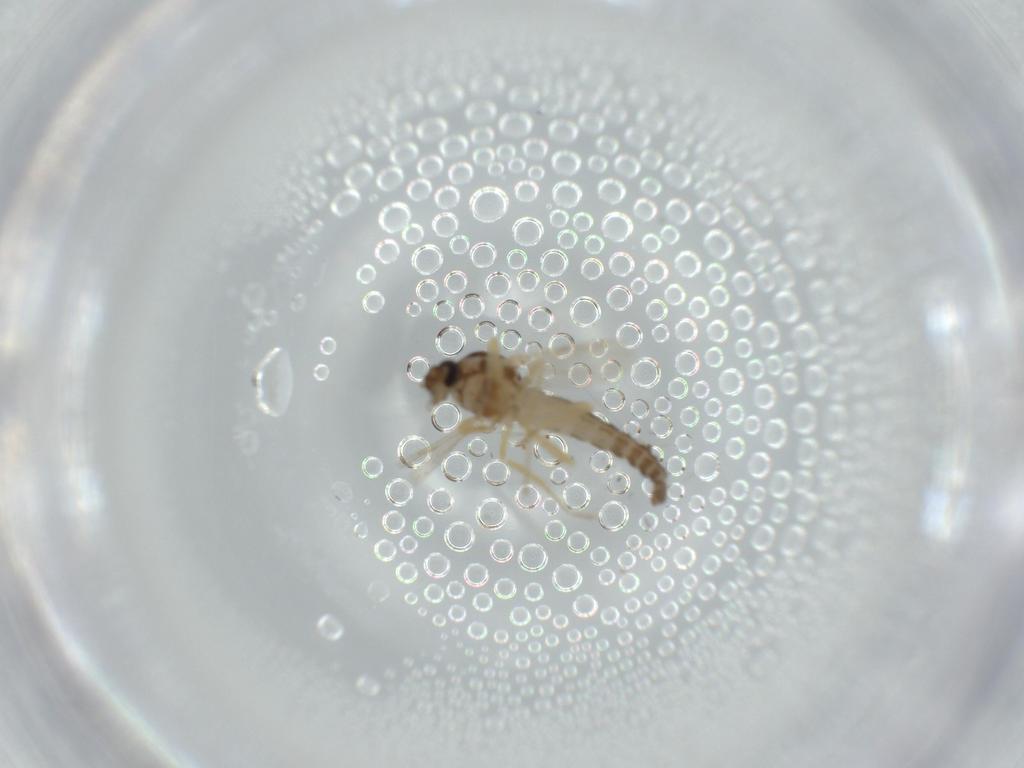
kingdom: Animalia
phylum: Arthropoda
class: Insecta
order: Diptera
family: Ceratopogonidae
